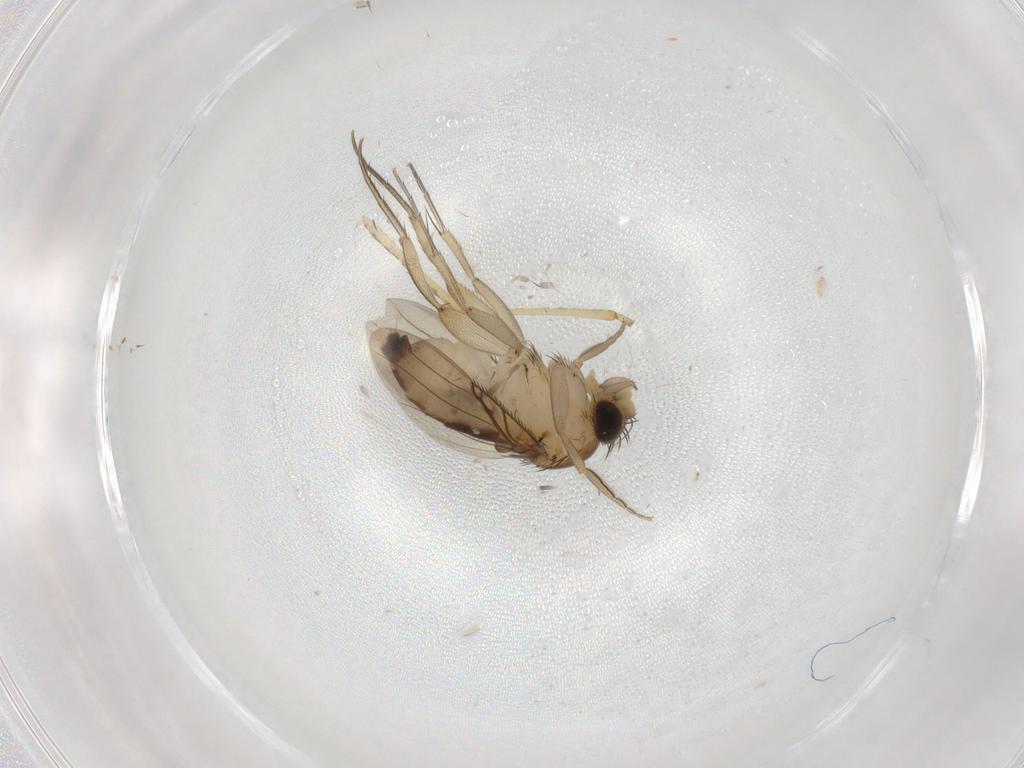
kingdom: Animalia
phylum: Arthropoda
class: Insecta
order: Diptera
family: Phoridae
